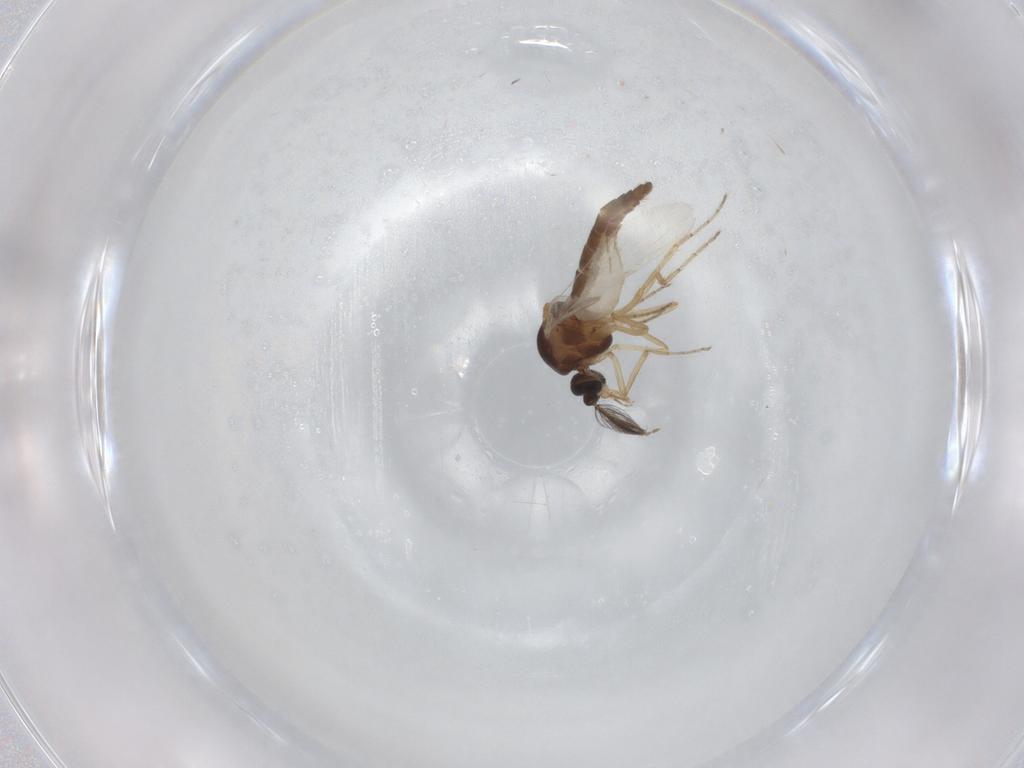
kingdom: Animalia
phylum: Arthropoda
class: Insecta
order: Diptera
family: Ceratopogonidae
